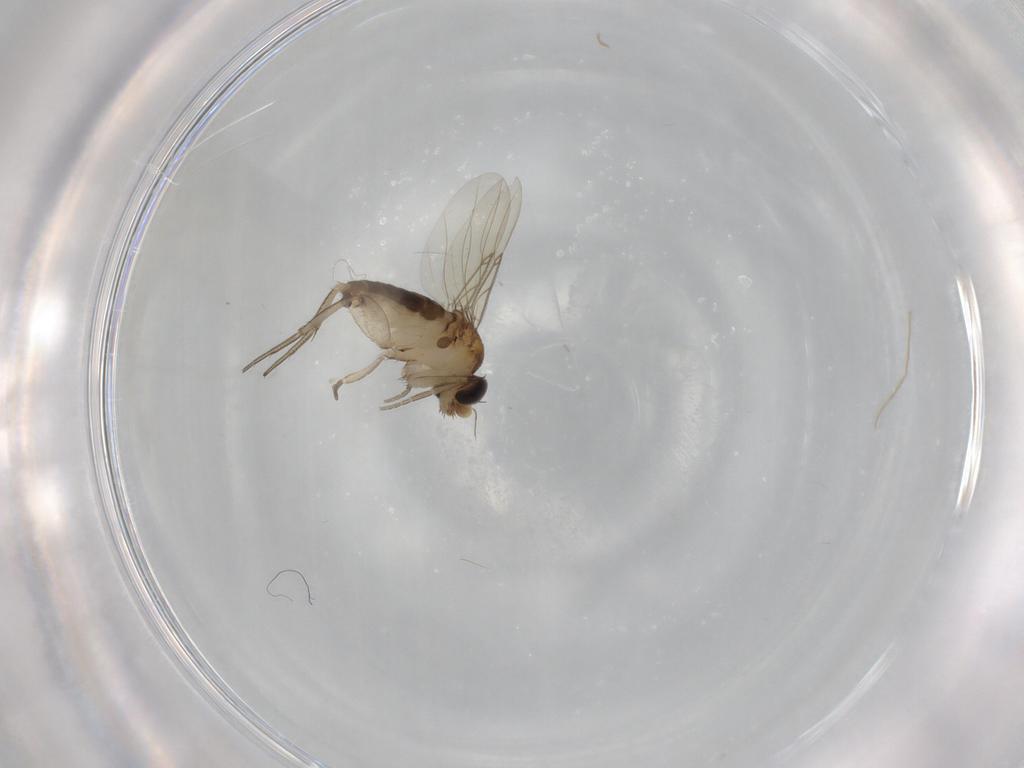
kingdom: Animalia
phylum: Arthropoda
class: Insecta
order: Diptera
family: Phoridae
